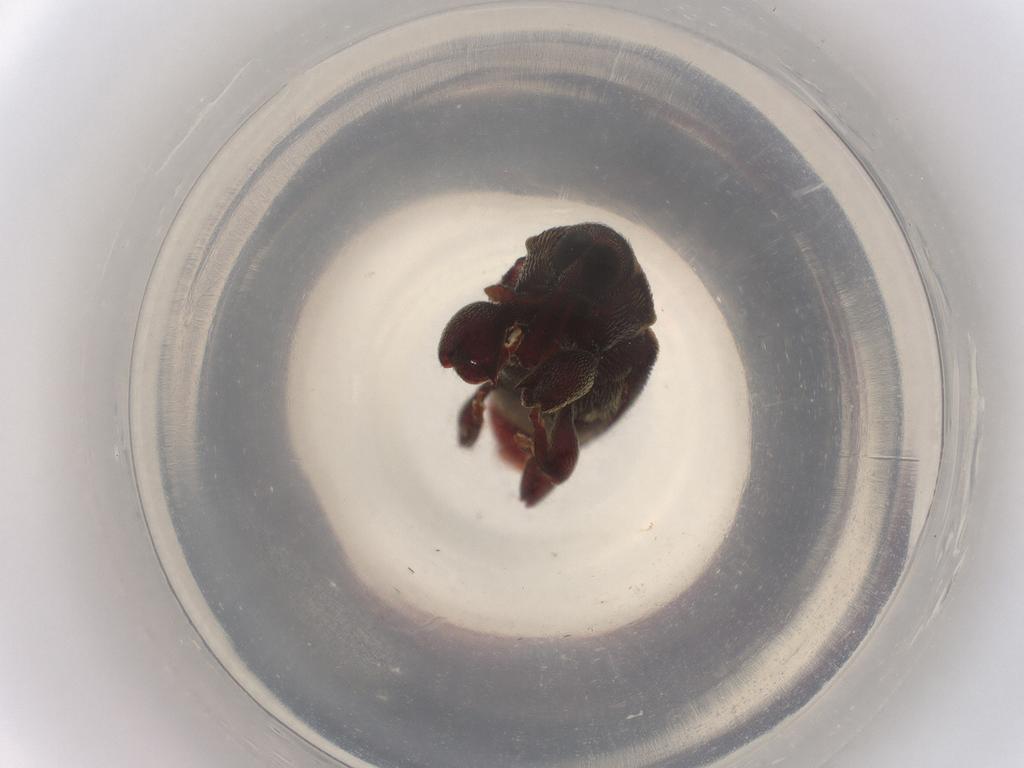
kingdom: Animalia
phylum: Arthropoda
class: Insecta
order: Coleoptera
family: Curculionidae
